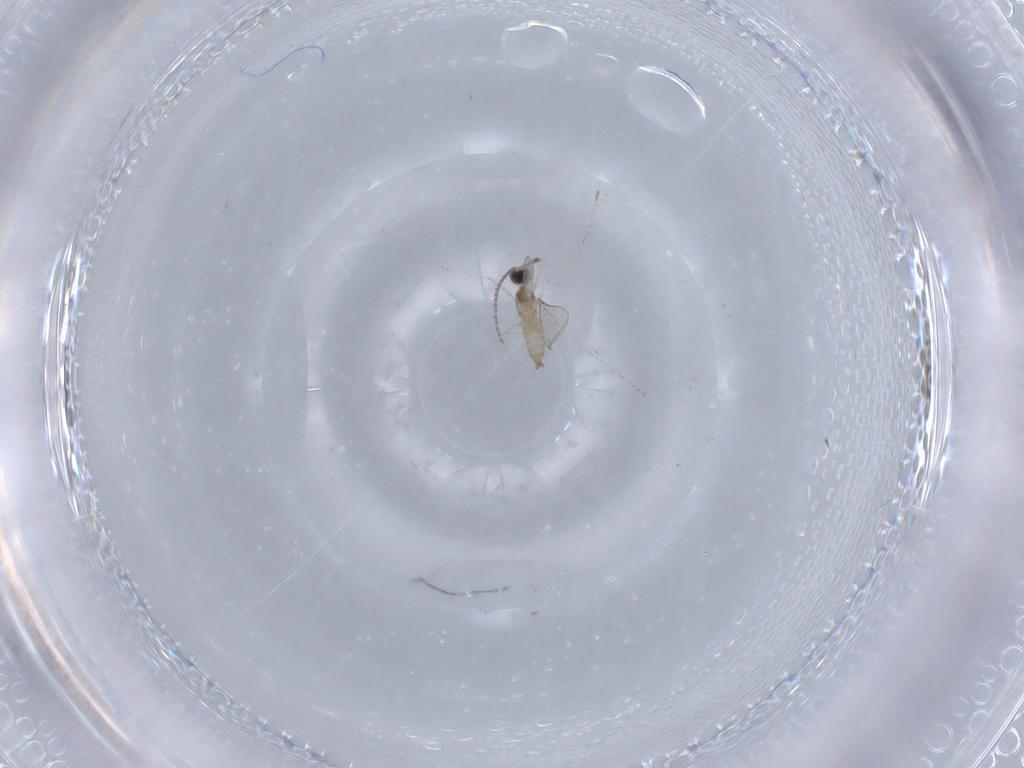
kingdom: Animalia
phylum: Arthropoda
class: Insecta
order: Diptera
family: Cecidomyiidae
